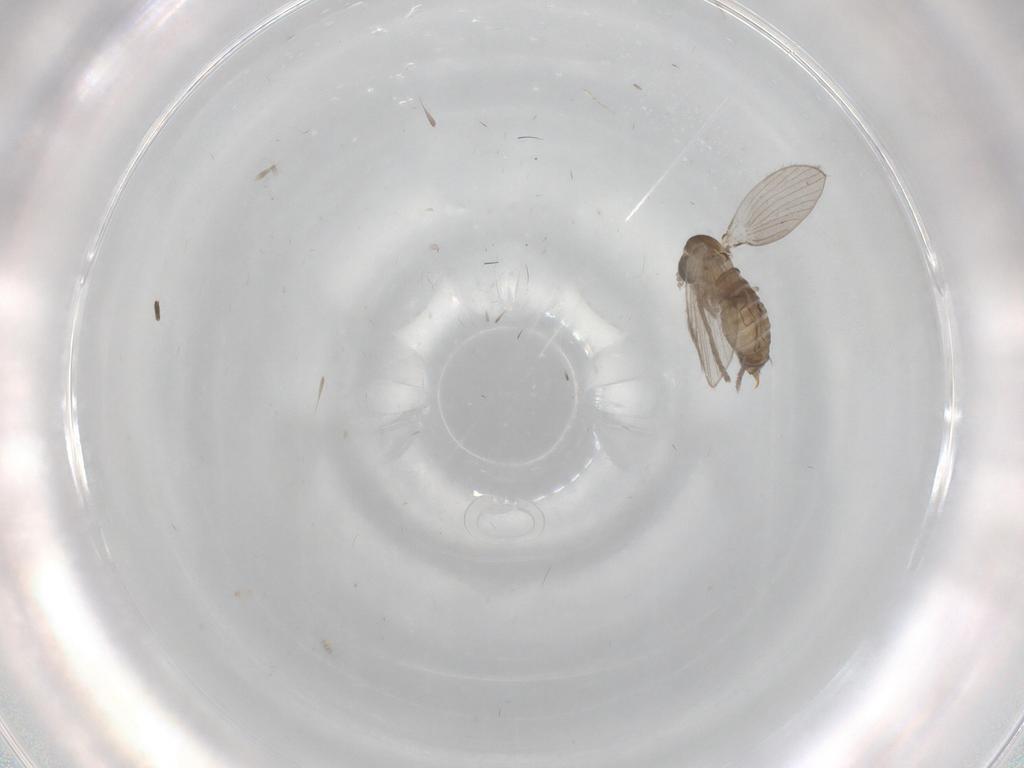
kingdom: Animalia
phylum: Arthropoda
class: Insecta
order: Diptera
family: Psychodidae
